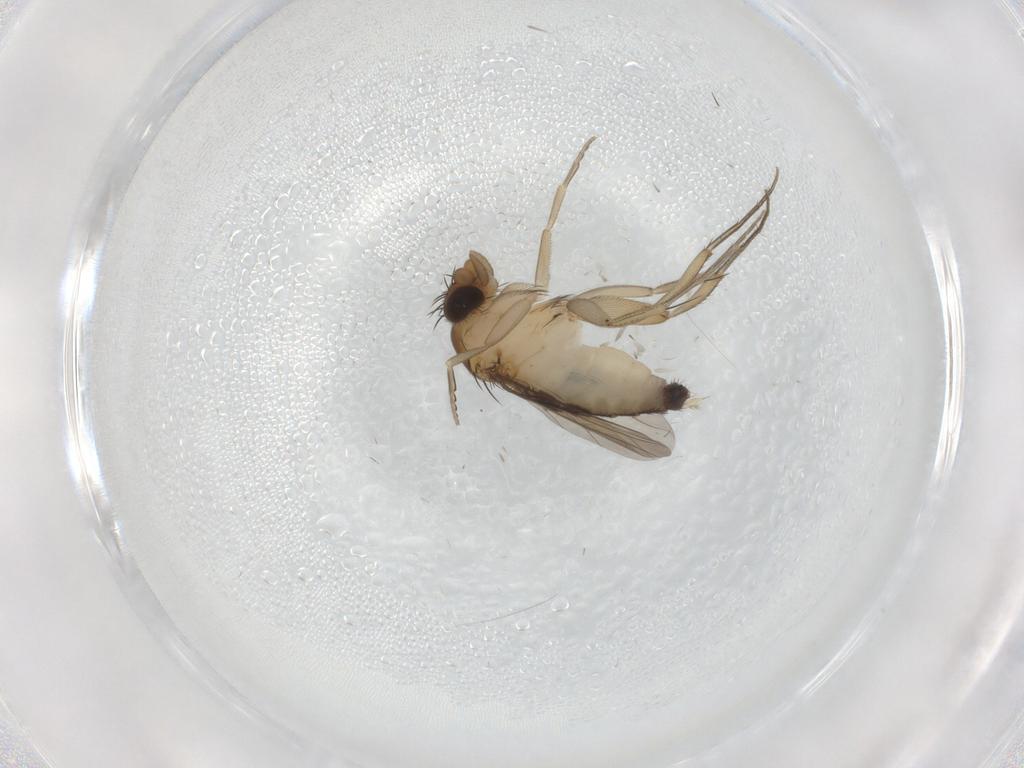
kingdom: Animalia
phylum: Arthropoda
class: Insecta
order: Diptera
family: Phoridae
